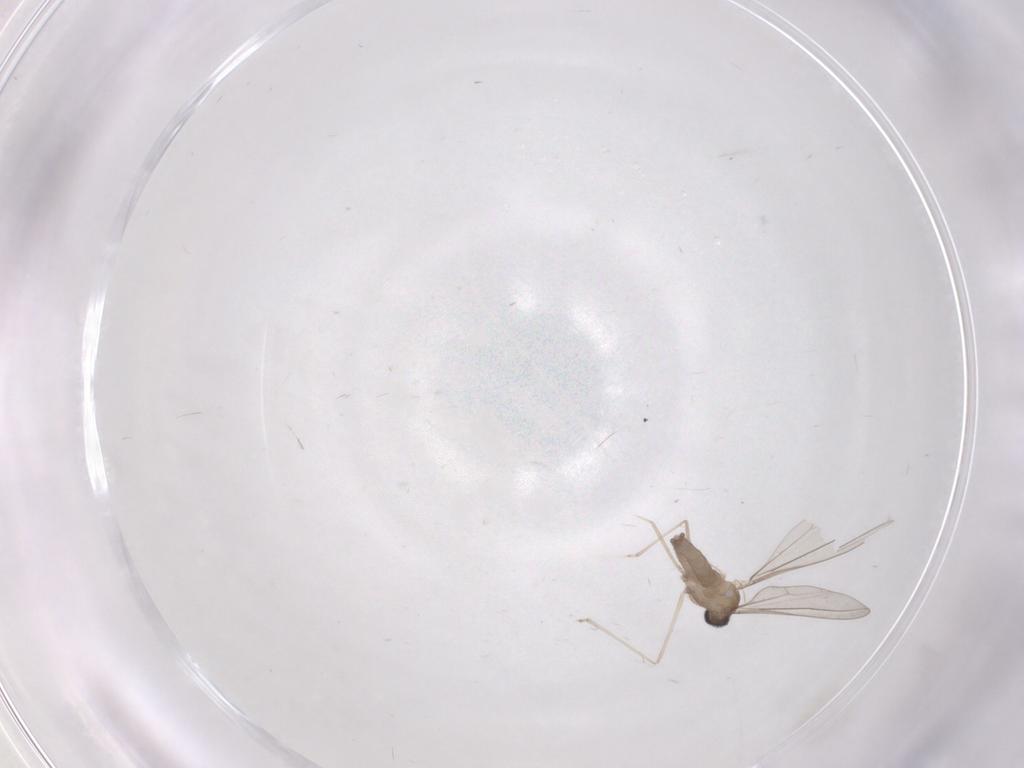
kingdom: Animalia
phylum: Arthropoda
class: Insecta
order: Diptera
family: Cecidomyiidae
